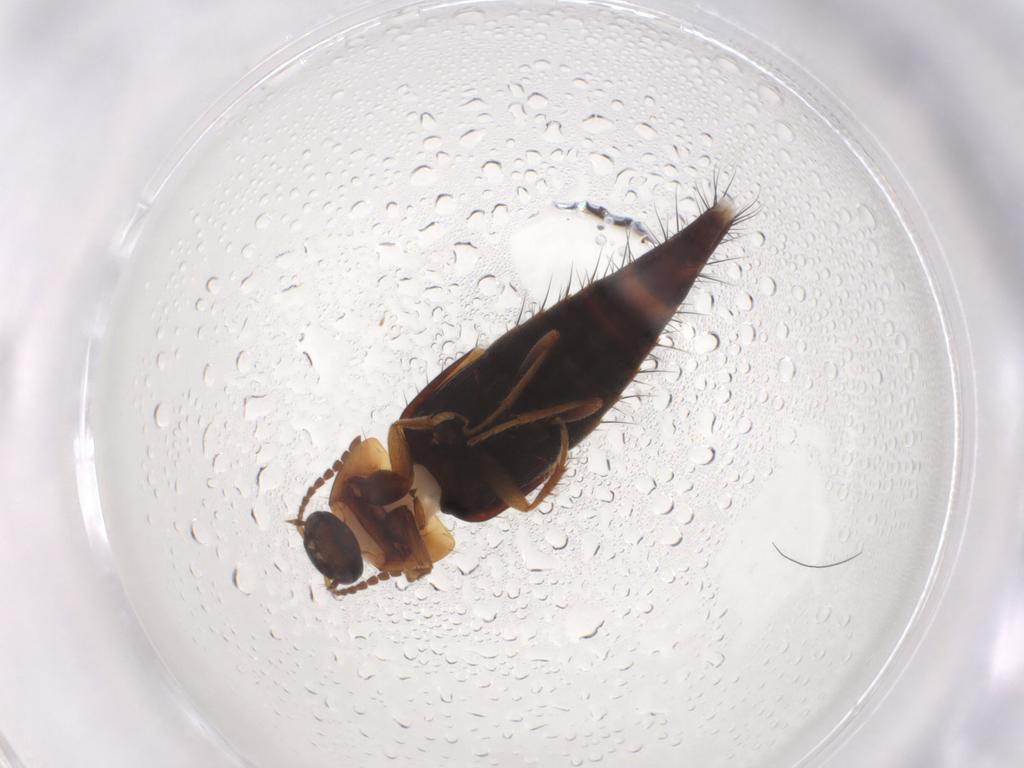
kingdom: Animalia
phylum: Arthropoda
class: Insecta
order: Coleoptera
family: Staphylinidae
